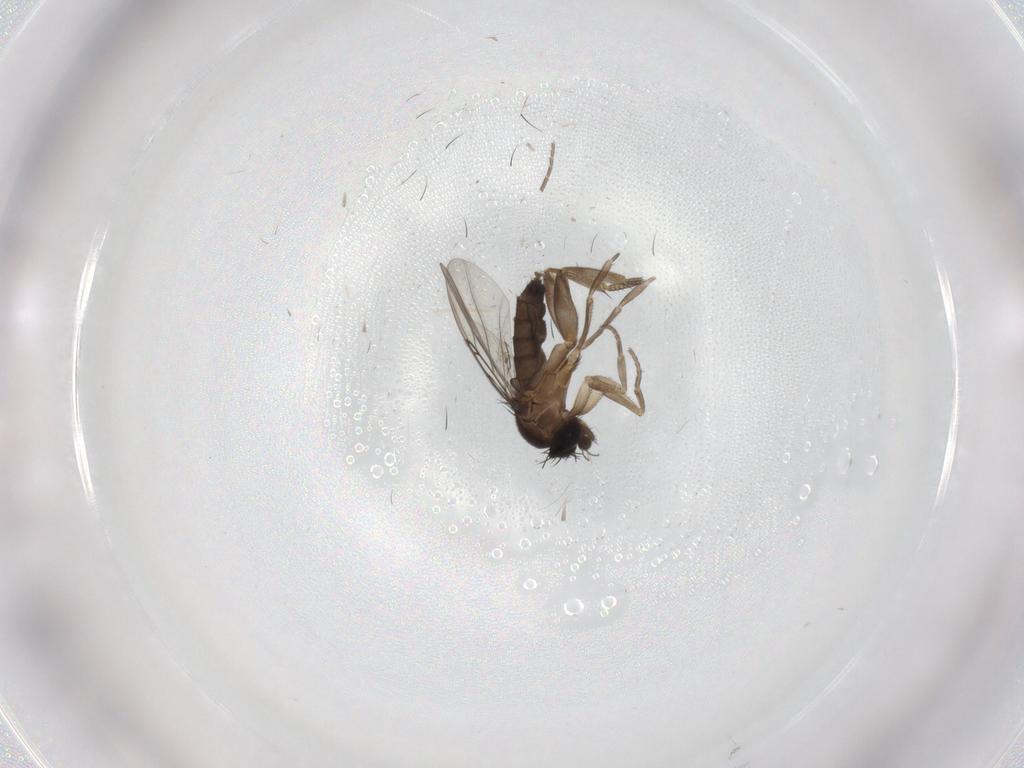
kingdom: Animalia
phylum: Arthropoda
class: Insecta
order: Diptera
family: Phoridae
